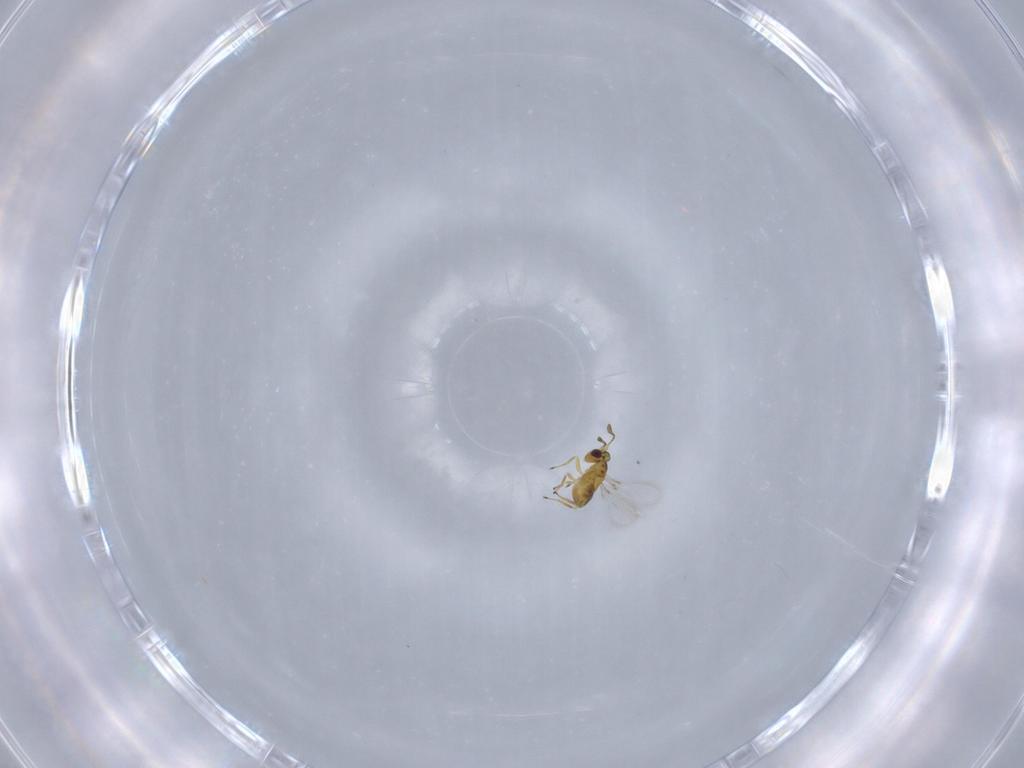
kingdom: Animalia
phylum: Arthropoda
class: Insecta
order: Hymenoptera
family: Mymaridae
